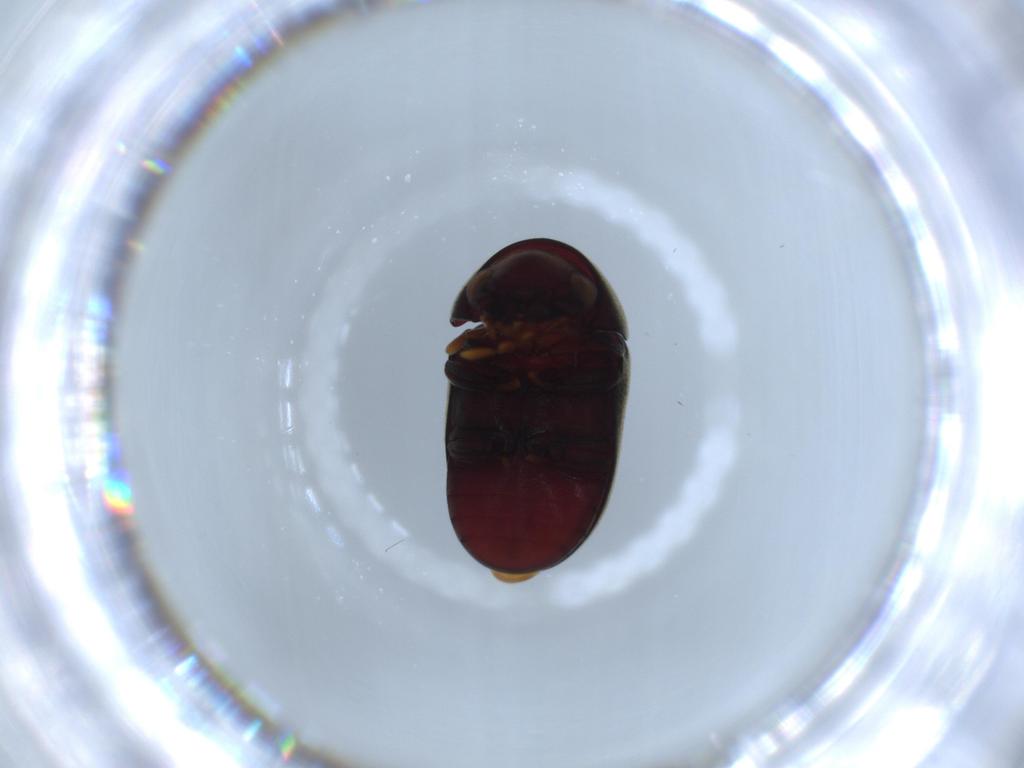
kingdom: Animalia
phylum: Arthropoda
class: Insecta
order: Coleoptera
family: Ptinidae
